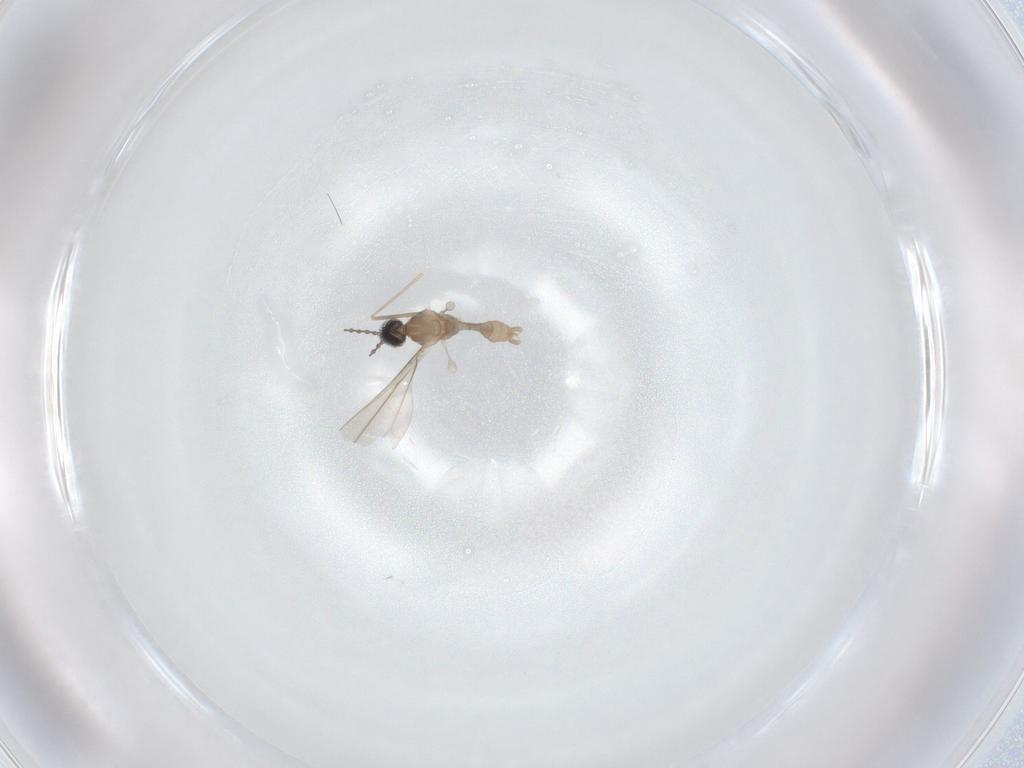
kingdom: Animalia
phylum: Arthropoda
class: Insecta
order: Diptera
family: Cecidomyiidae
